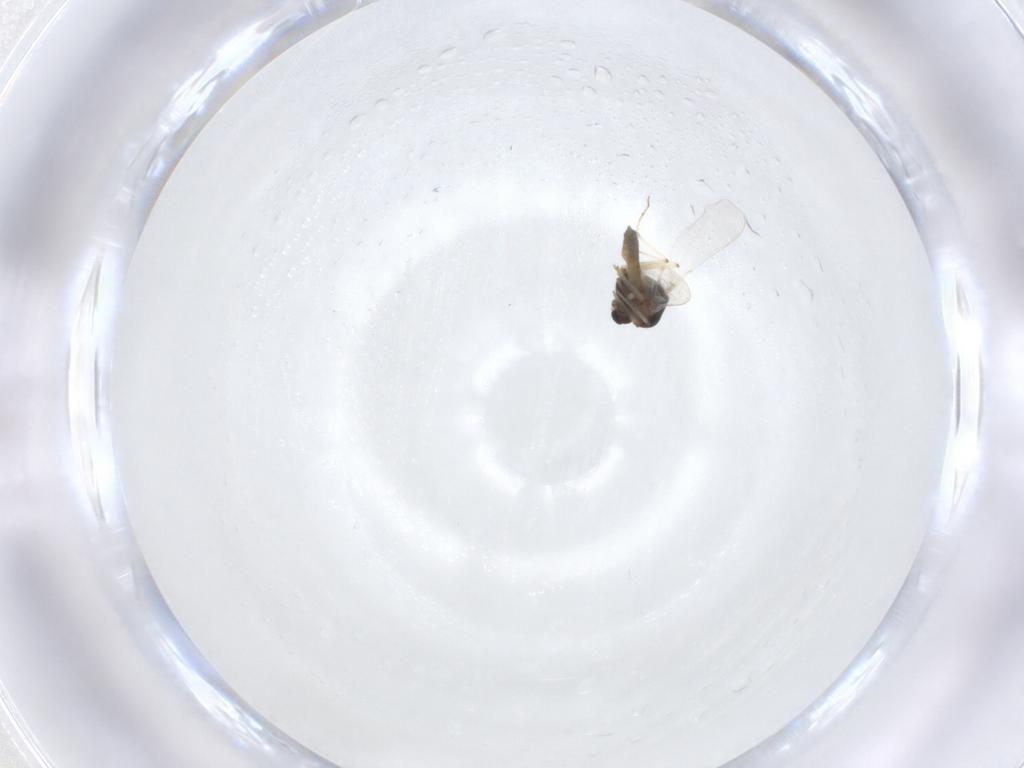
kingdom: Animalia
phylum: Arthropoda
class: Insecta
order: Diptera
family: Chironomidae
